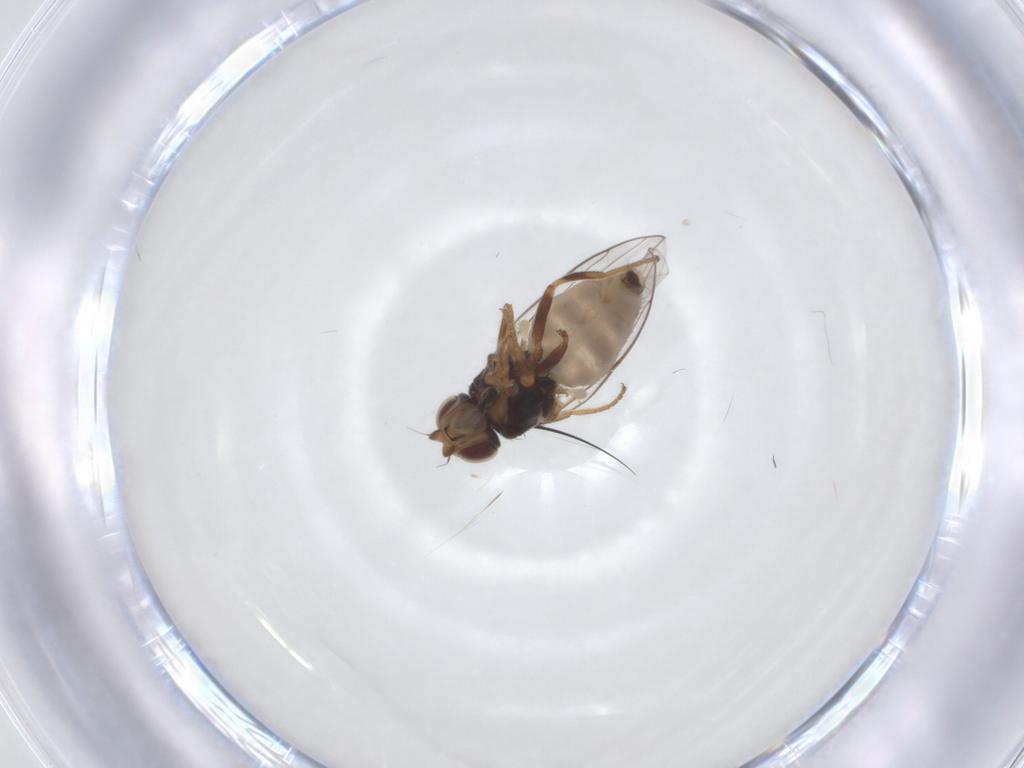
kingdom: Animalia
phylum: Arthropoda
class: Insecta
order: Diptera
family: Chloropidae
